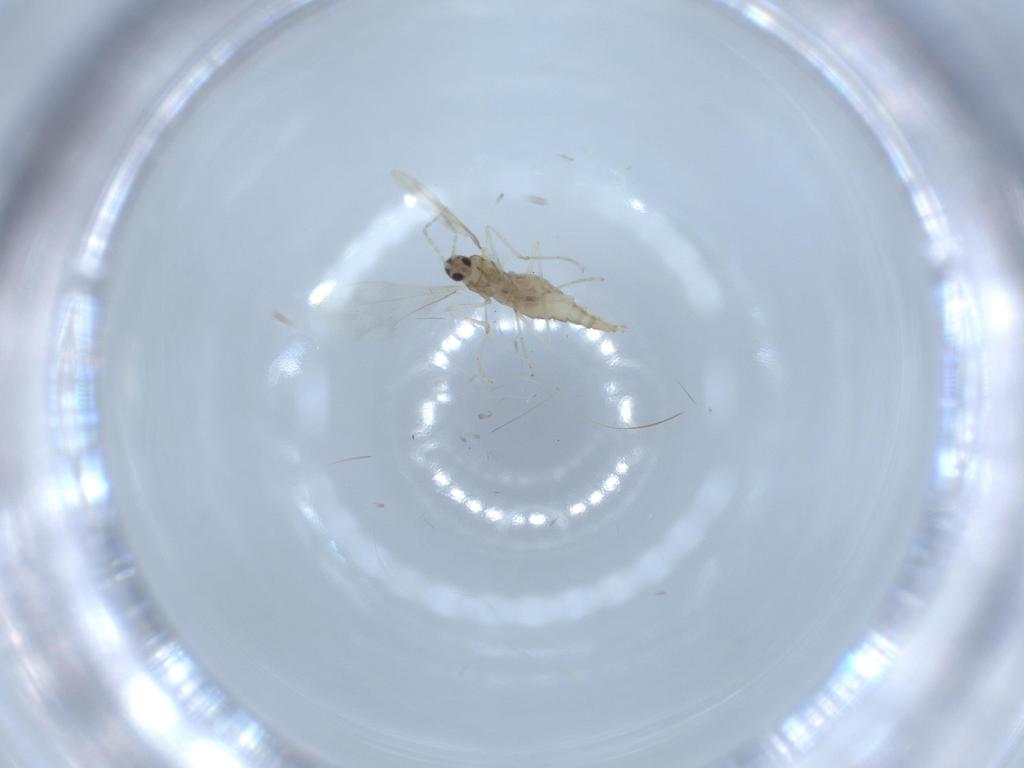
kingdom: Animalia
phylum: Arthropoda
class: Insecta
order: Diptera
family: Cecidomyiidae
